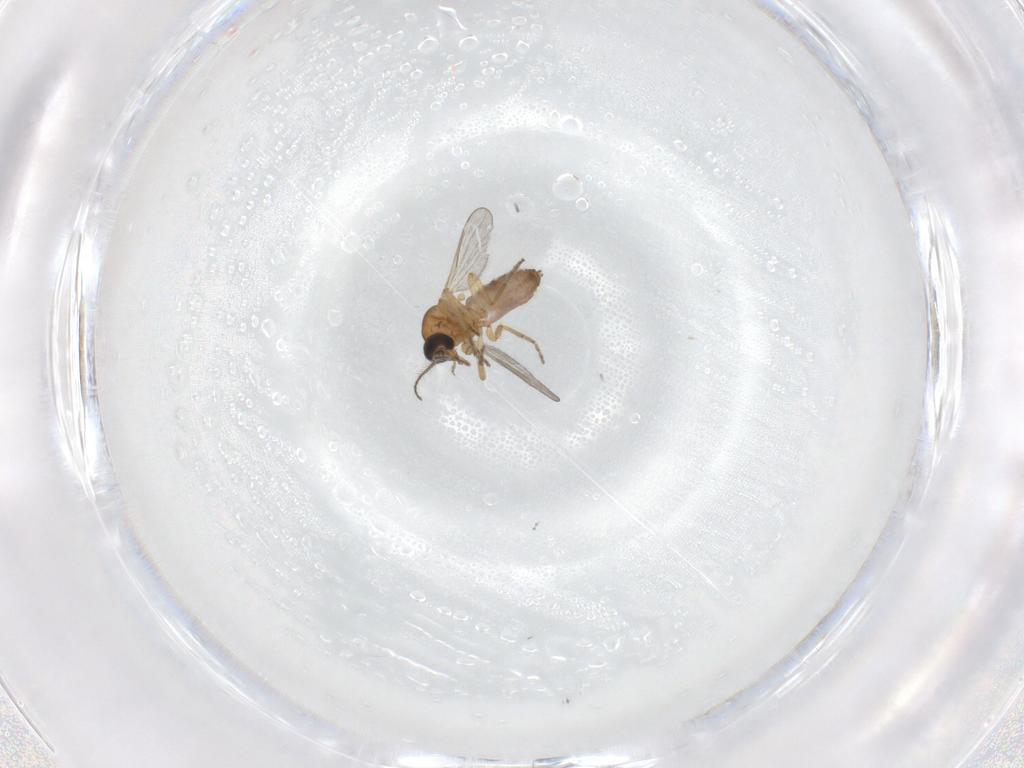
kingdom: Animalia
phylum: Arthropoda
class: Insecta
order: Diptera
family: Ceratopogonidae
